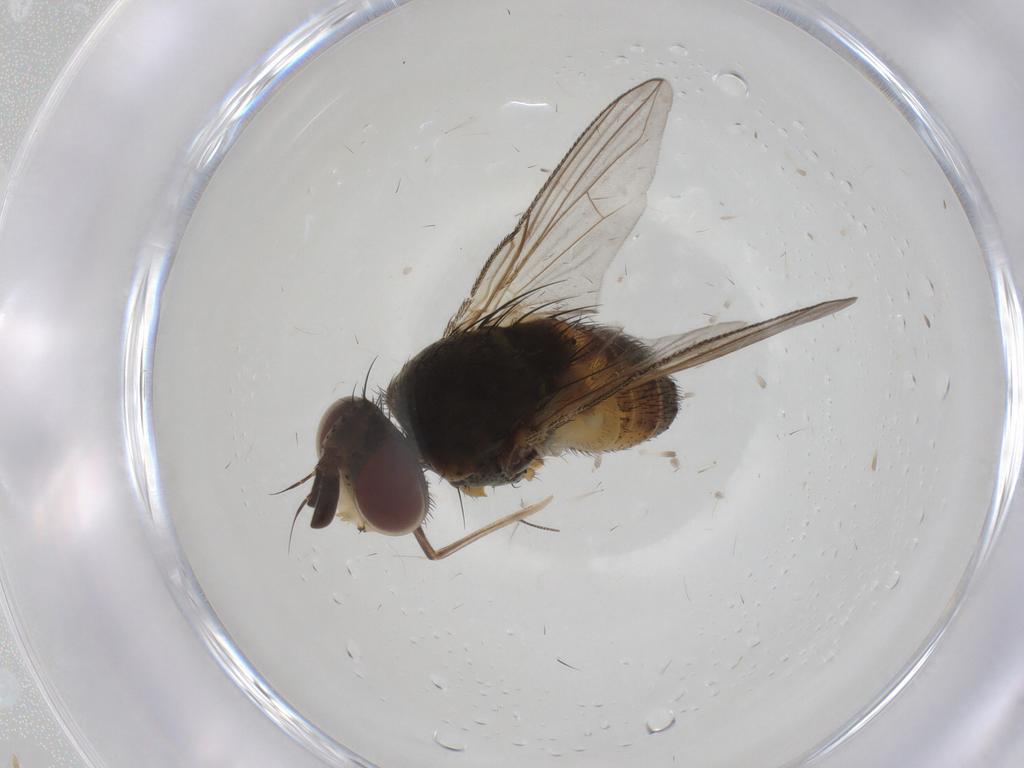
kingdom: Animalia
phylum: Arthropoda
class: Insecta
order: Diptera
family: Tachinidae
